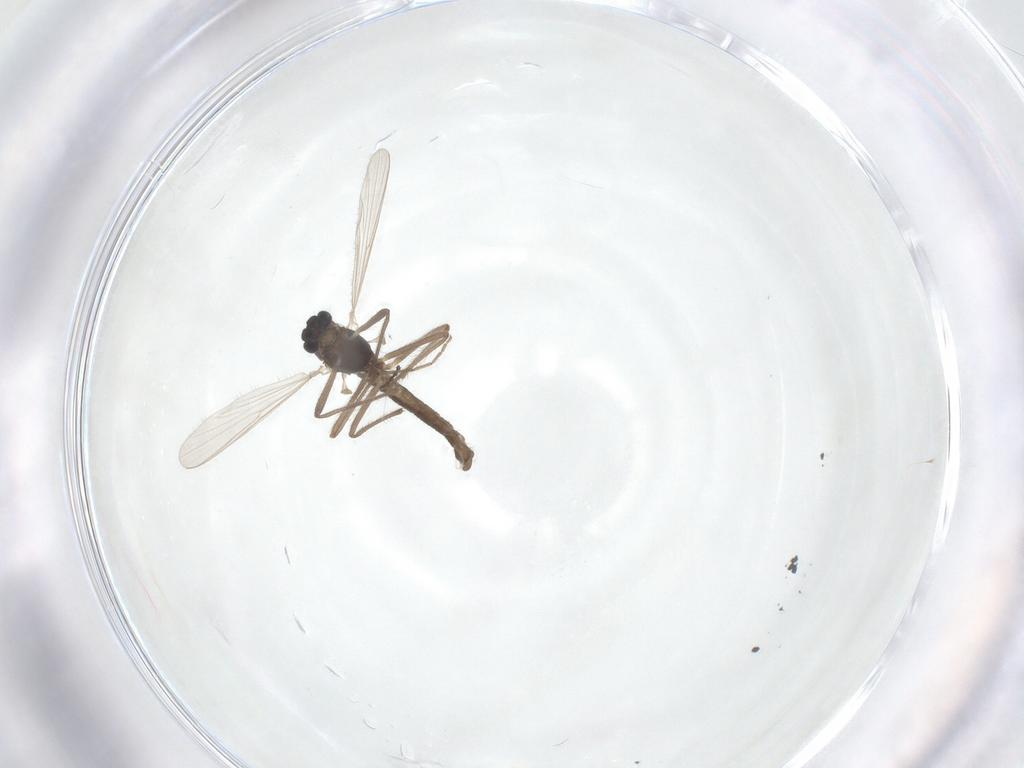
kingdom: Animalia
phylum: Arthropoda
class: Insecta
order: Diptera
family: Chironomidae
